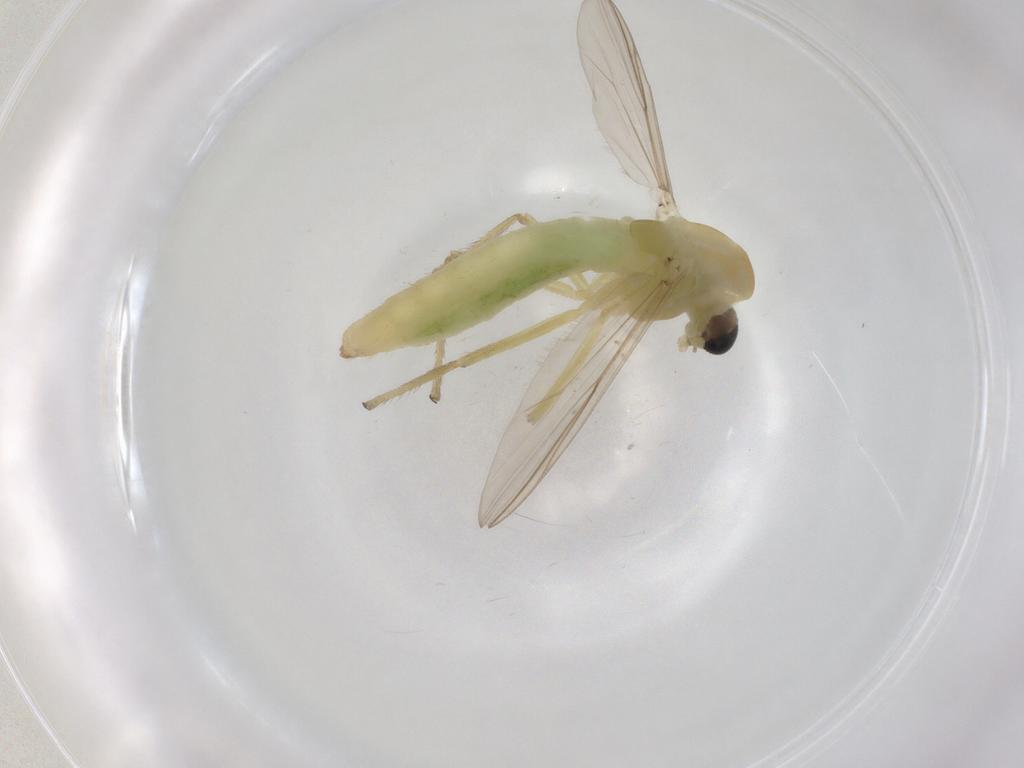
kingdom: Animalia
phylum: Arthropoda
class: Insecta
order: Diptera
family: Chironomidae
